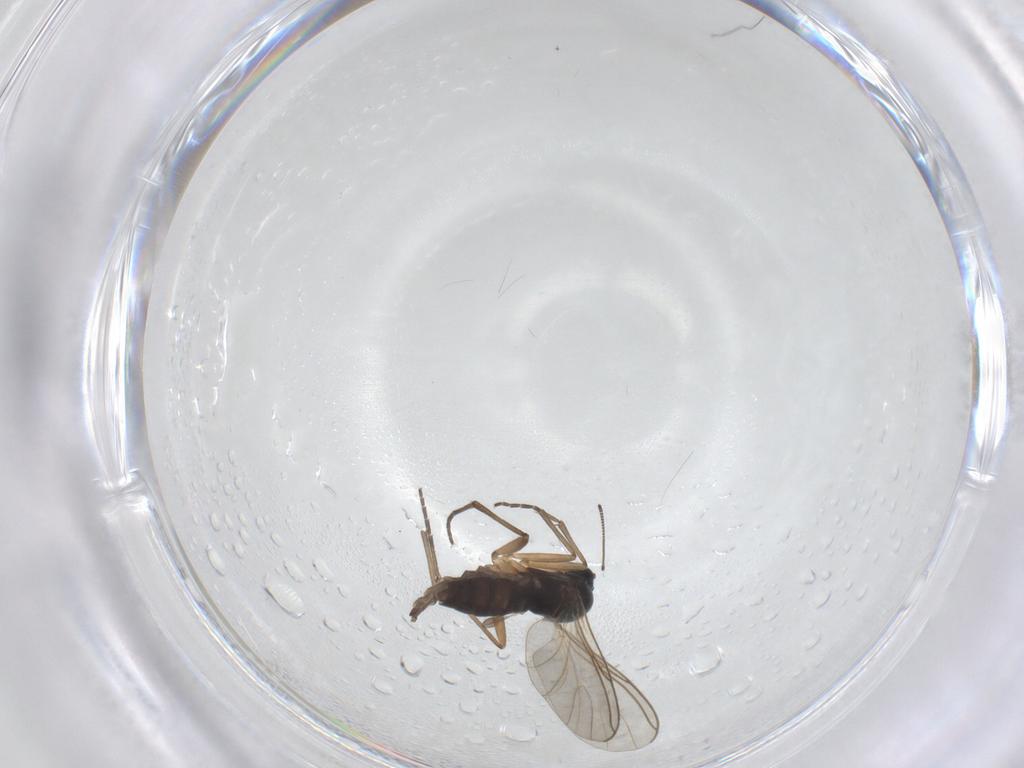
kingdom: Animalia
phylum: Arthropoda
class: Insecta
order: Diptera
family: Sciaridae
